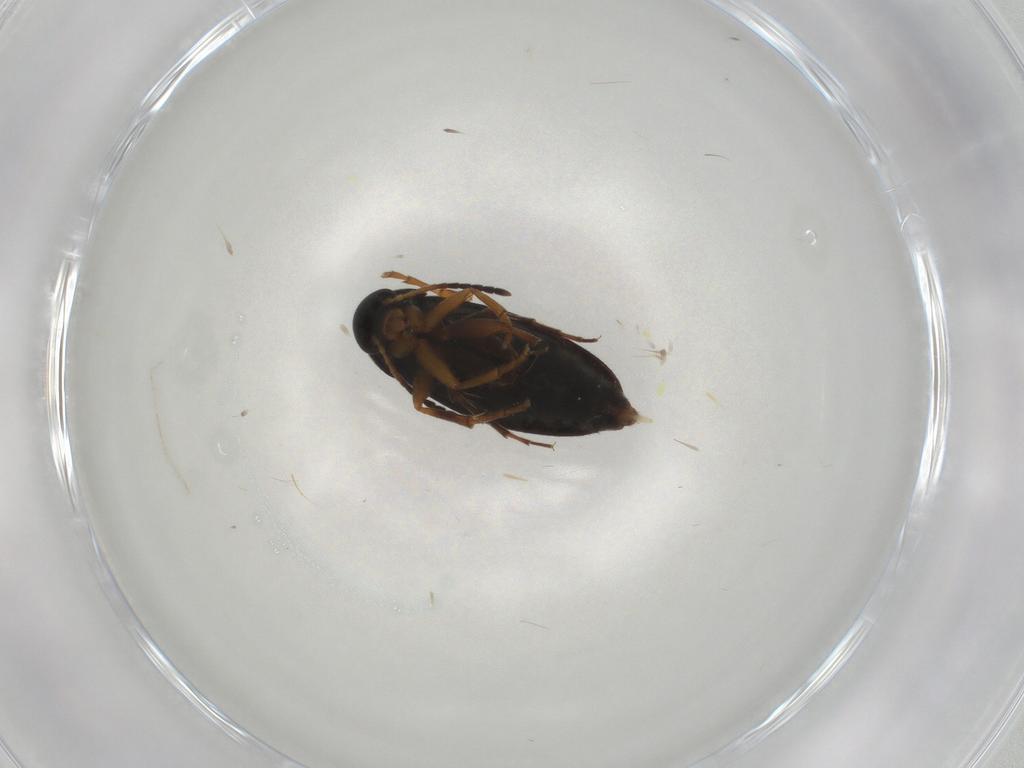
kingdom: Animalia
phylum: Arthropoda
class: Insecta
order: Coleoptera
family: Scraptiidae
